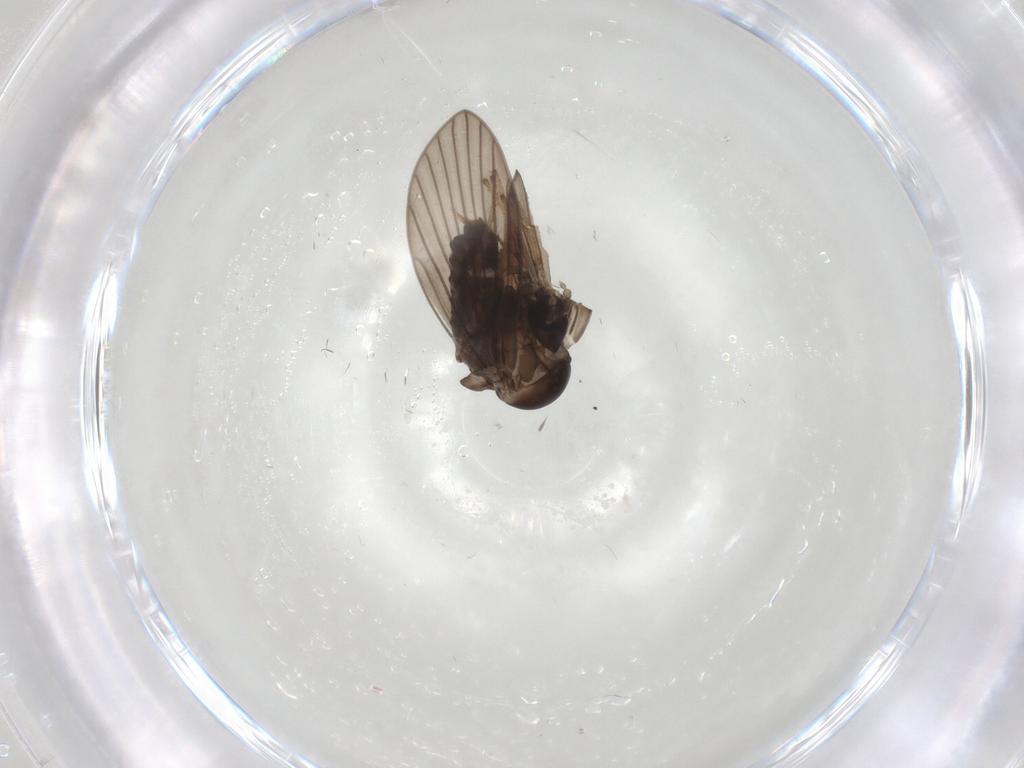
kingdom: Animalia
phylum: Arthropoda
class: Insecta
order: Diptera
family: Psychodidae
